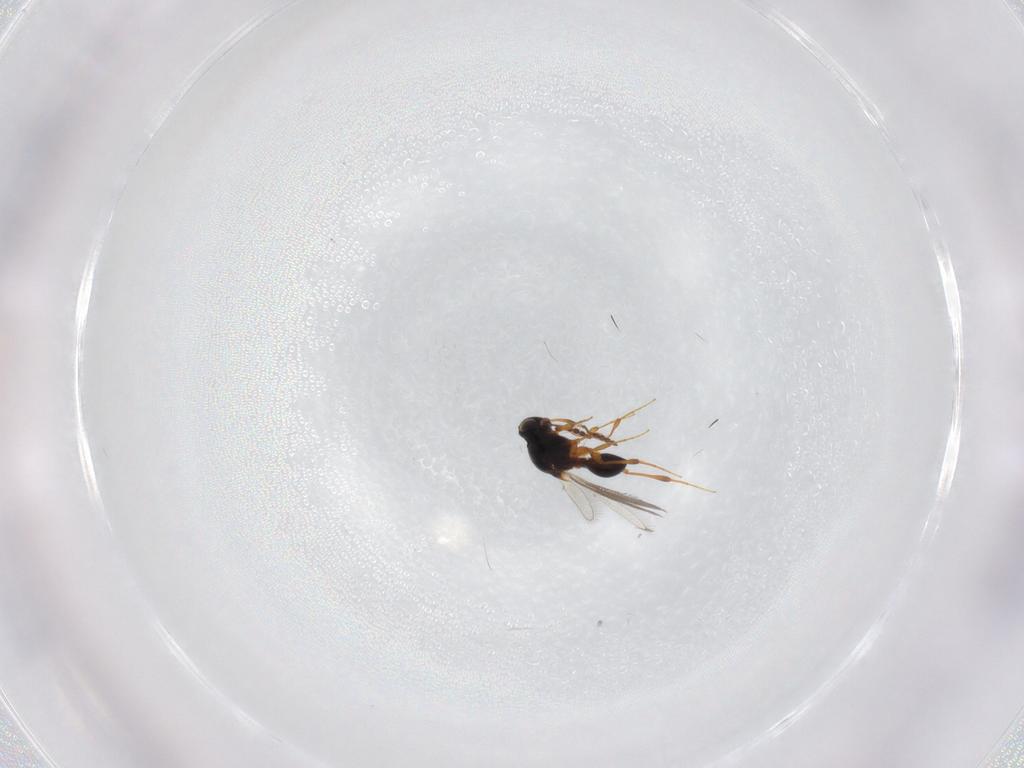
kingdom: Animalia
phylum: Arthropoda
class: Insecta
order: Hymenoptera
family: Platygastridae
